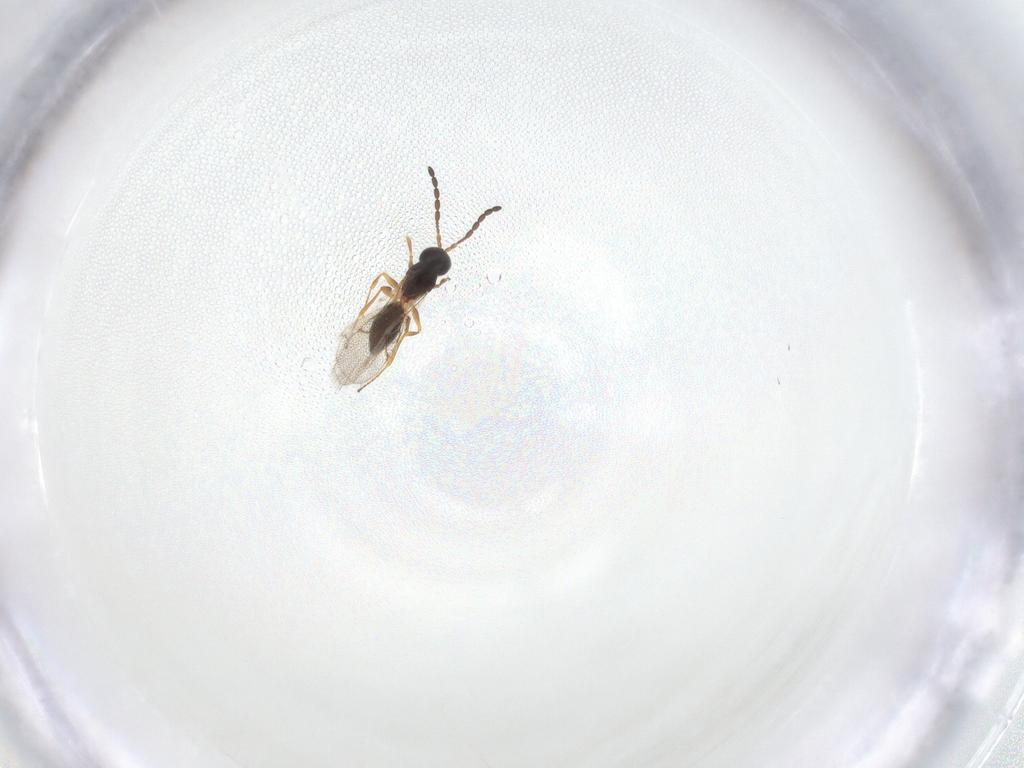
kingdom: Animalia
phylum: Arthropoda
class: Insecta
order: Hymenoptera
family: Figitidae
